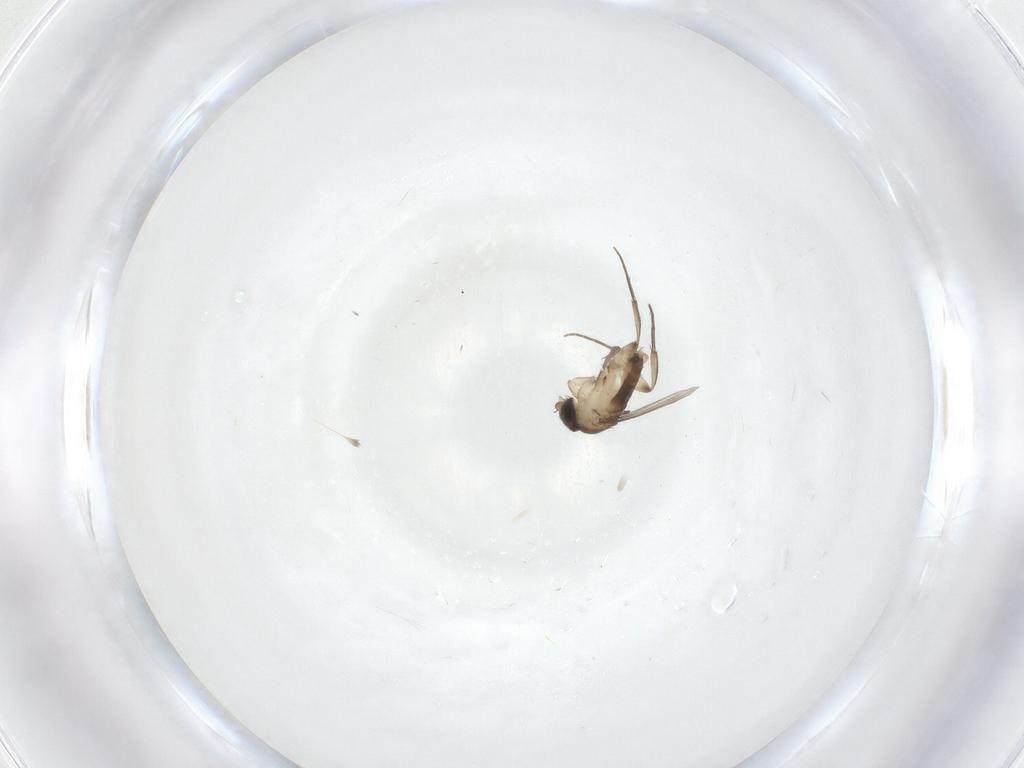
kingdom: Animalia
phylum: Arthropoda
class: Insecta
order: Diptera
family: Phoridae
